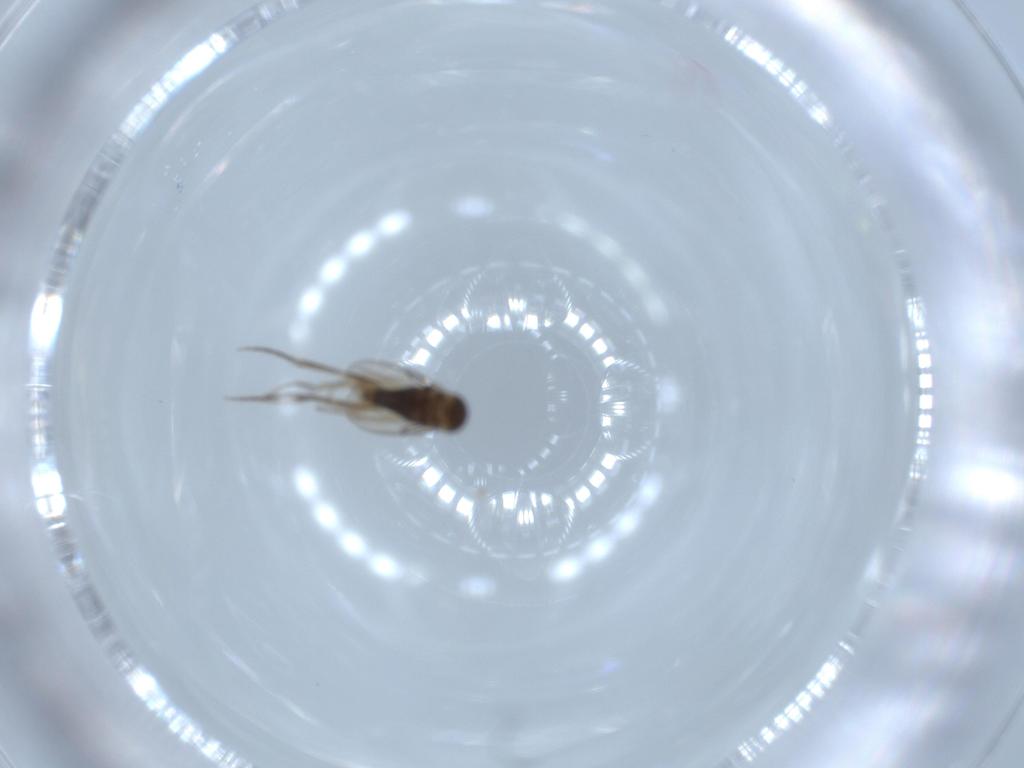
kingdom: Animalia
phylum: Arthropoda
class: Insecta
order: Diptera
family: Phoridae
